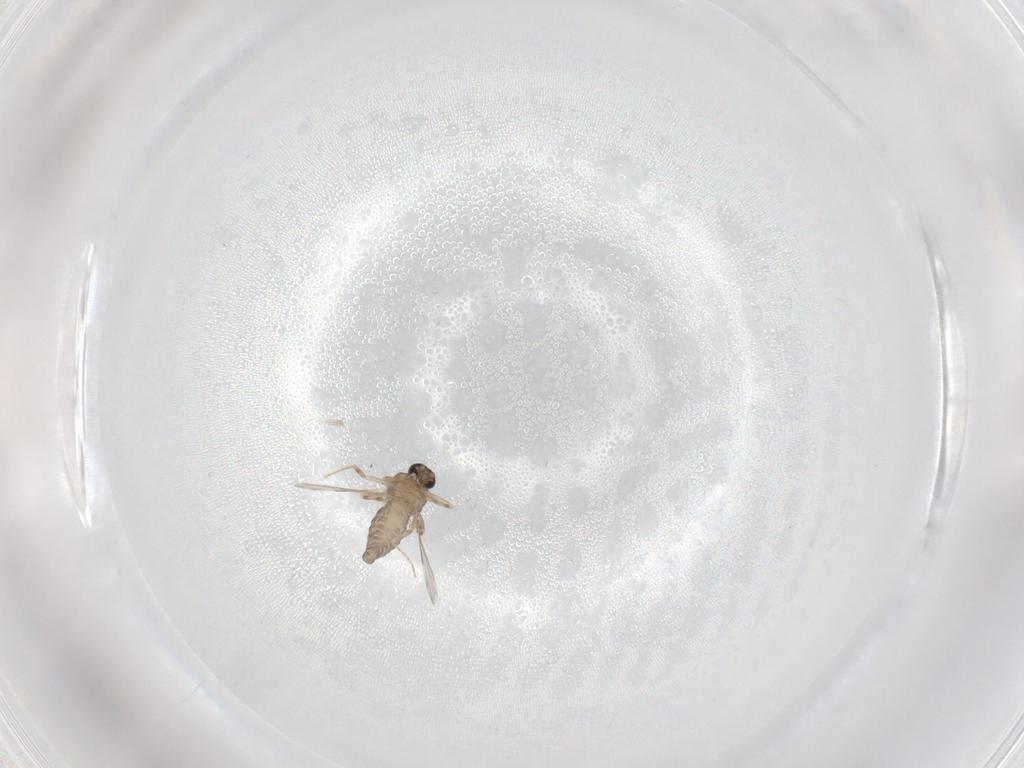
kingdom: Animalia
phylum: Arthropoda
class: Insecta
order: Diptera
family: Ceratopogonidae
